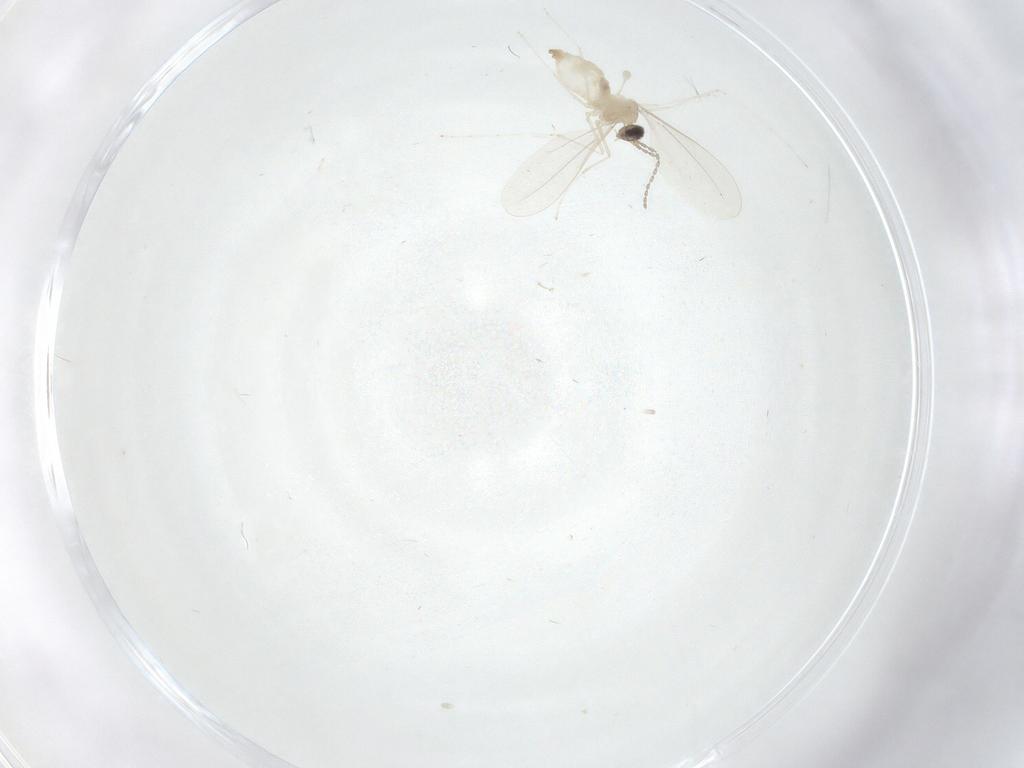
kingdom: Animalia
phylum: Arthropoda
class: Insecta
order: Diptera
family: Cecidomyiidae
